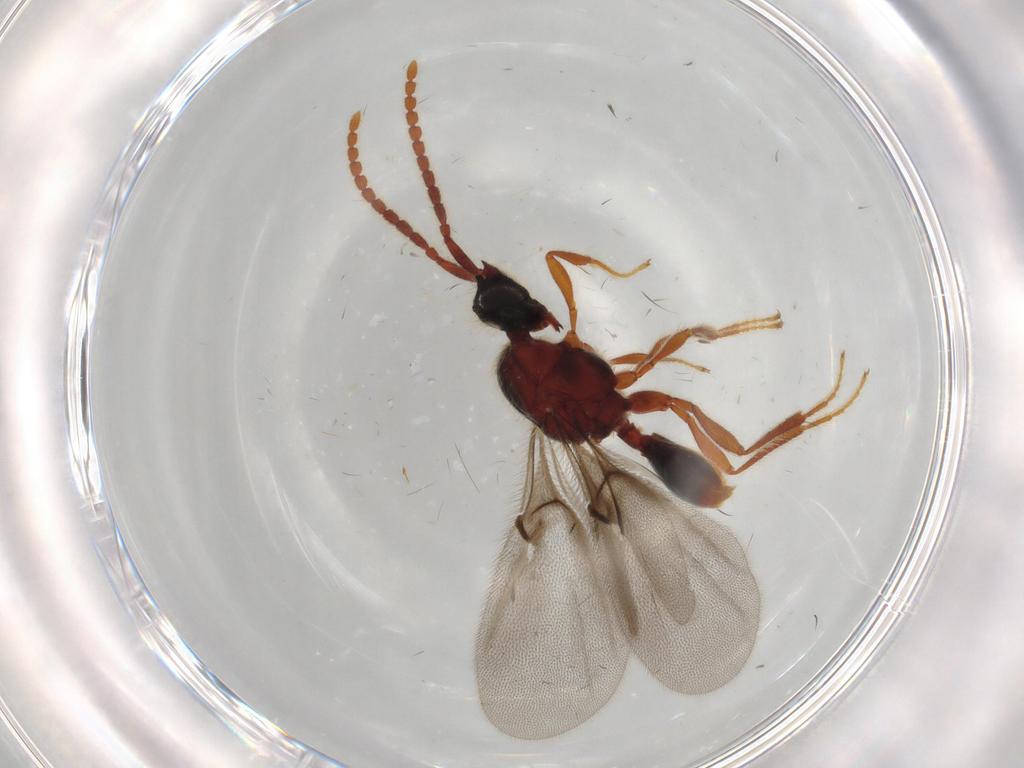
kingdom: Animalia
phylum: Arthropoda
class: Insecta
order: Hymenoptera
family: Diapriidae
